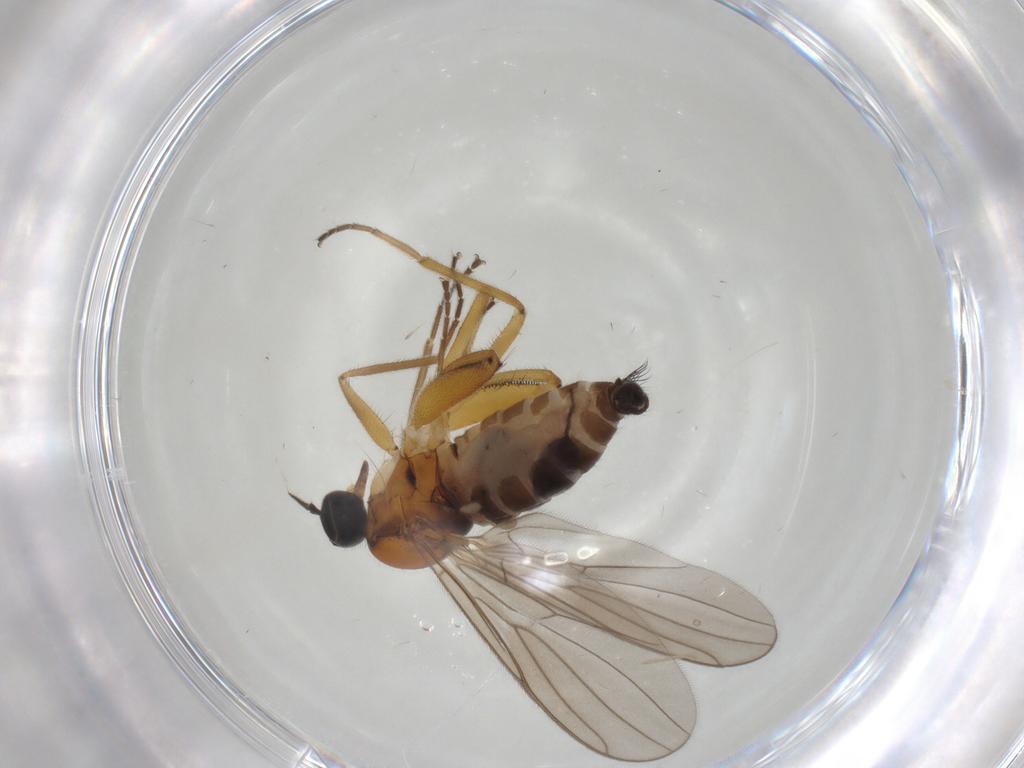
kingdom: Animalia
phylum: Arthropoda
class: Insecta
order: Diptera
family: Hybotidae
